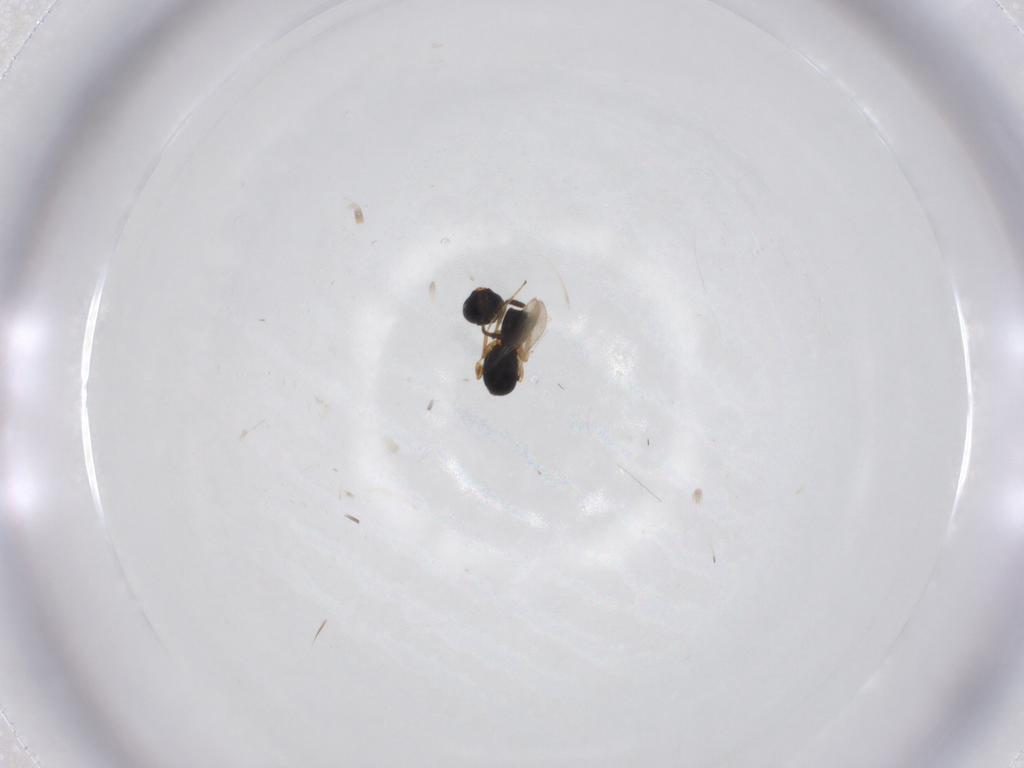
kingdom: Animalia
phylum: Arthropoda
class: Insecta
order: Hymenoptera
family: Scelionidae
